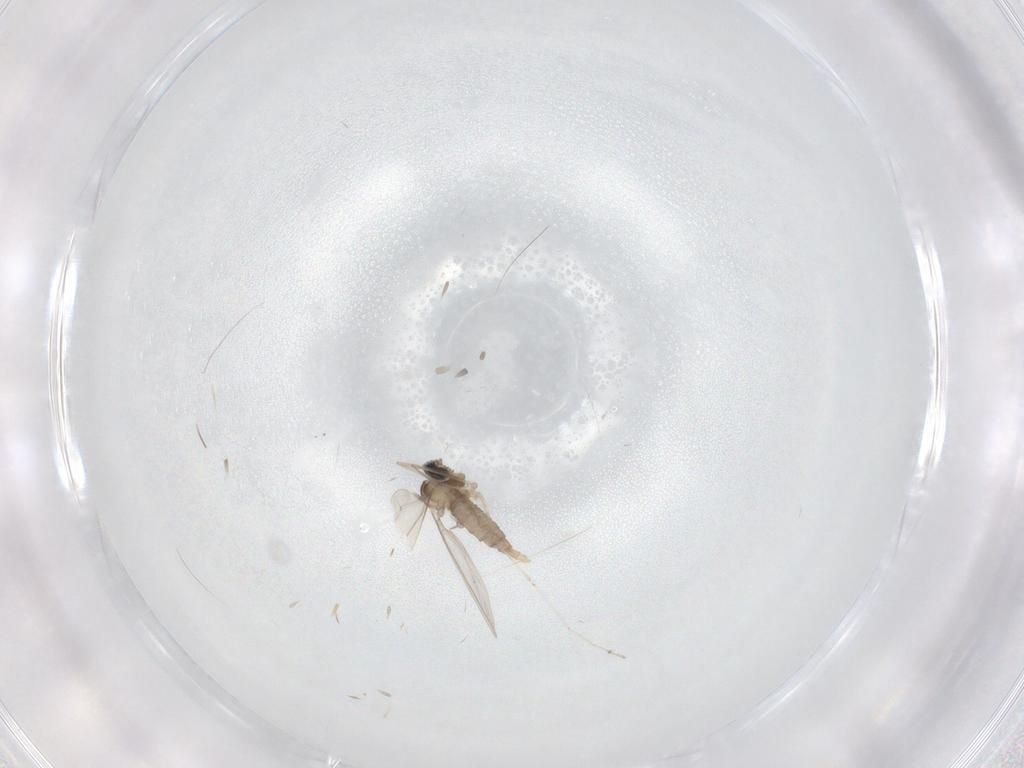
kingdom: Animalia
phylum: Arthropoda
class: Insecta
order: Diptera
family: Cecidomyiidae
